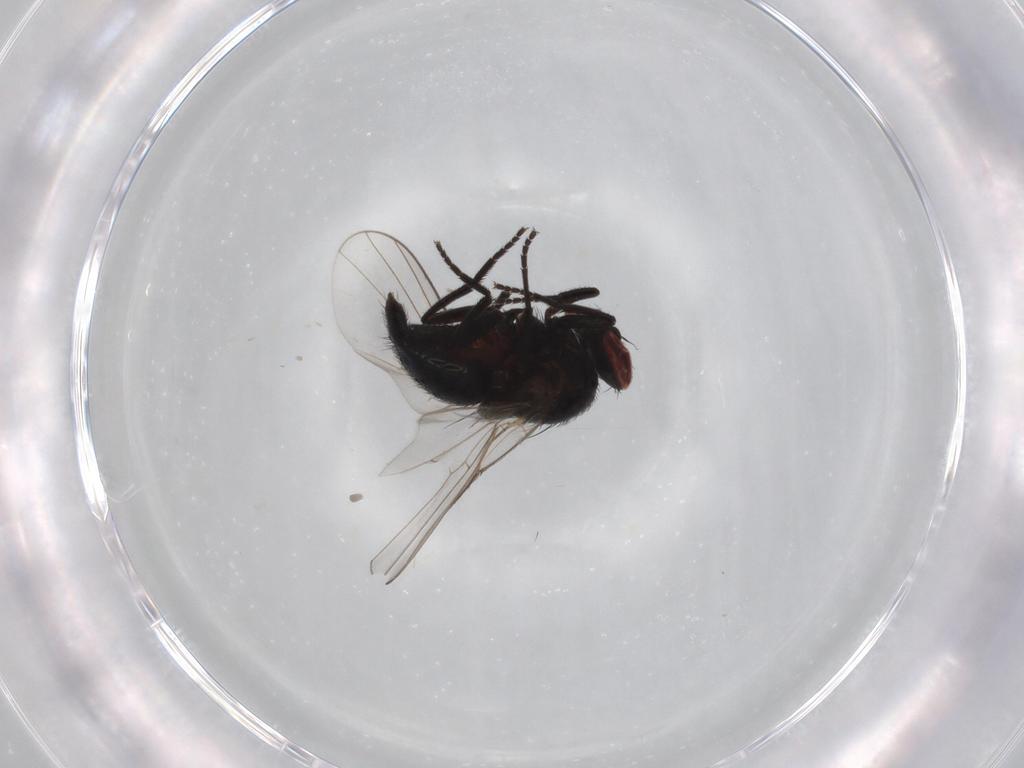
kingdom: Animalia
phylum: Arthropoda
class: Insecta
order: Diptera
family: Agromyzidae
